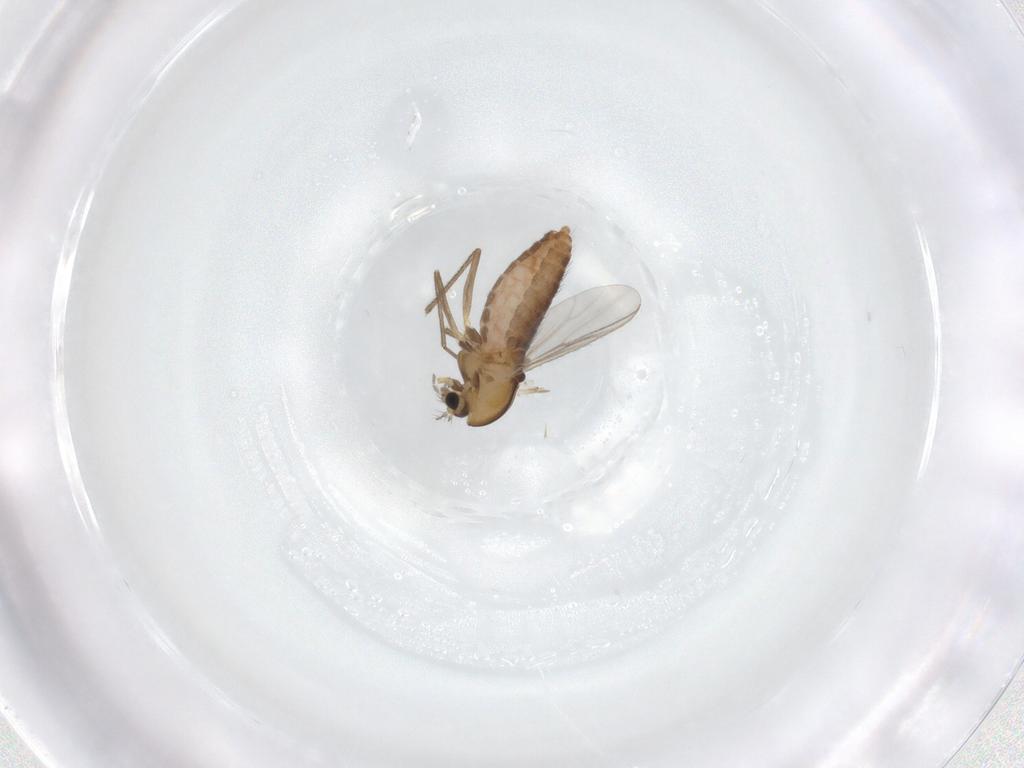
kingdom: Animalia
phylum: Arthropoda
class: Insecta
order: Diptera
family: Chironomidae
